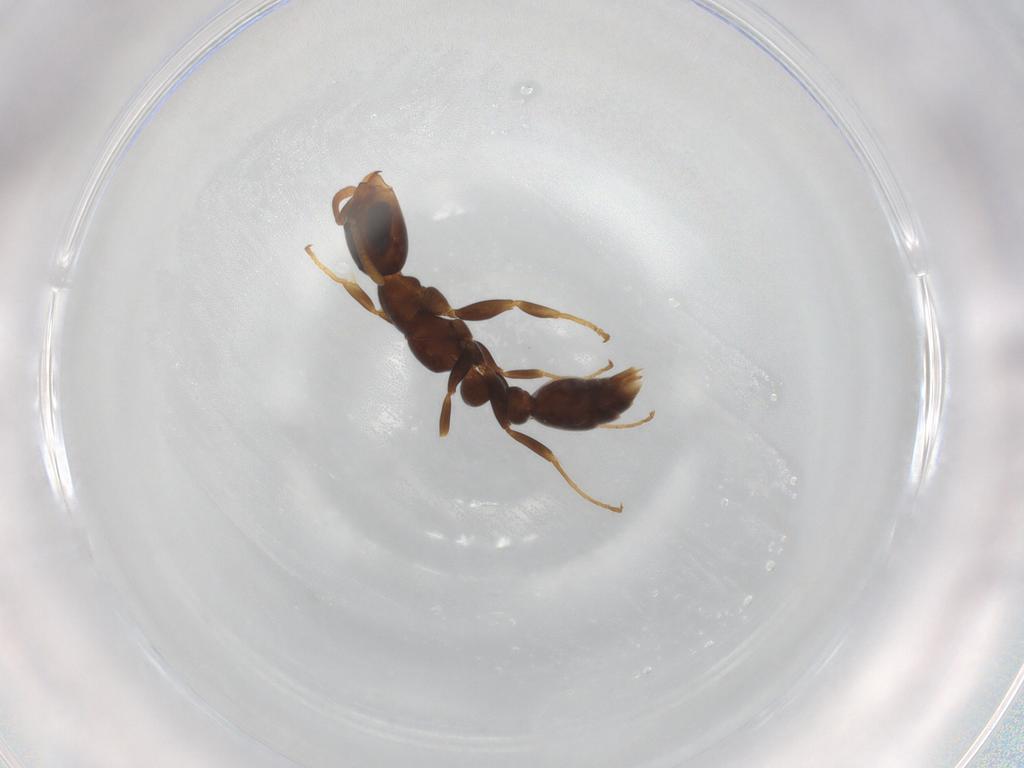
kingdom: Animalia
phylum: Arthropoda
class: Insecta
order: Hymenoptera
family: Formicidae
